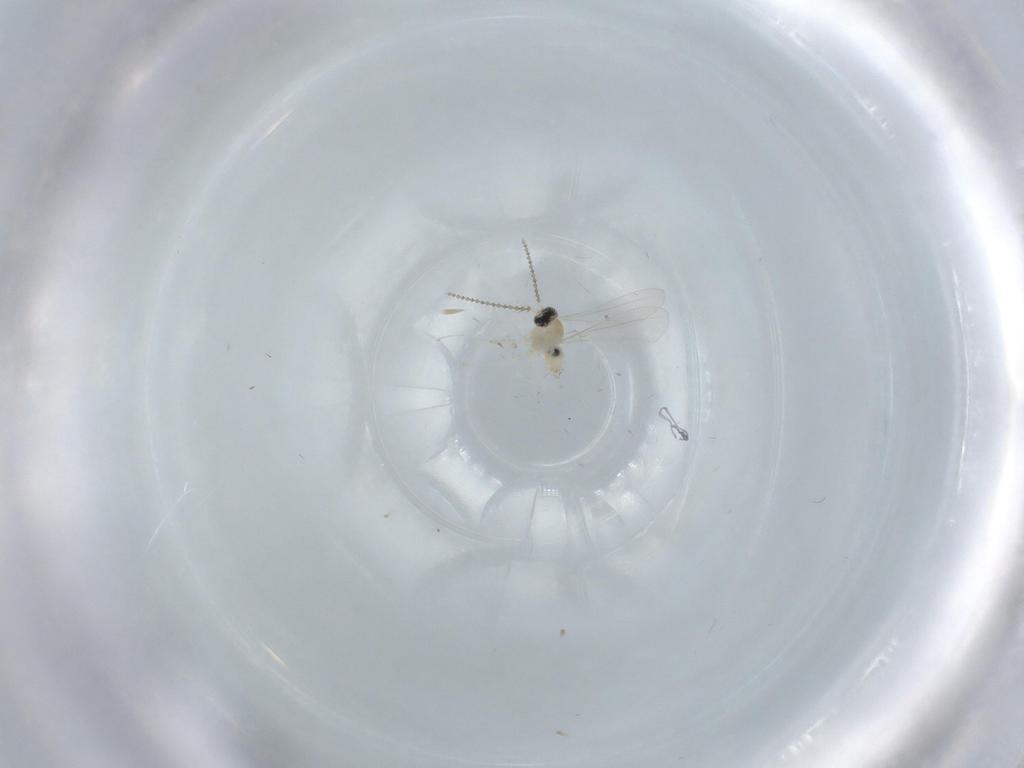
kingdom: Animalia
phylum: Arthropoda
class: Insecta
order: Diptera
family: Cecidomyiidae
